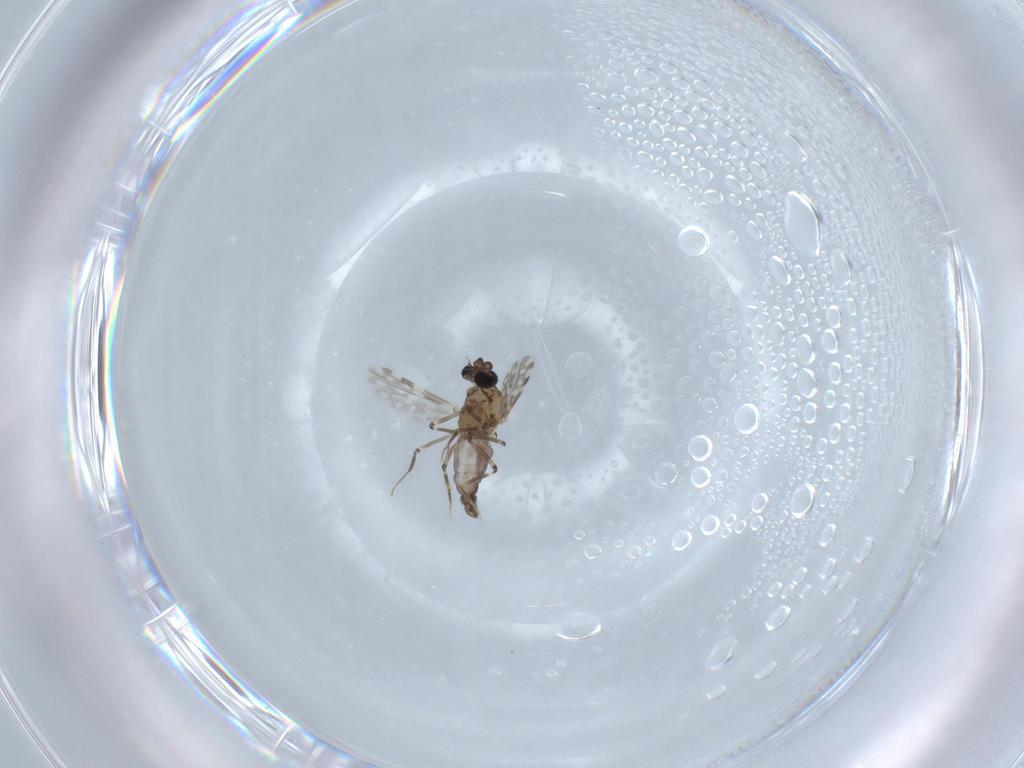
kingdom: Animalia
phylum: Arthropoda
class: Insecta
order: Diptera
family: Ceratopogonidae
